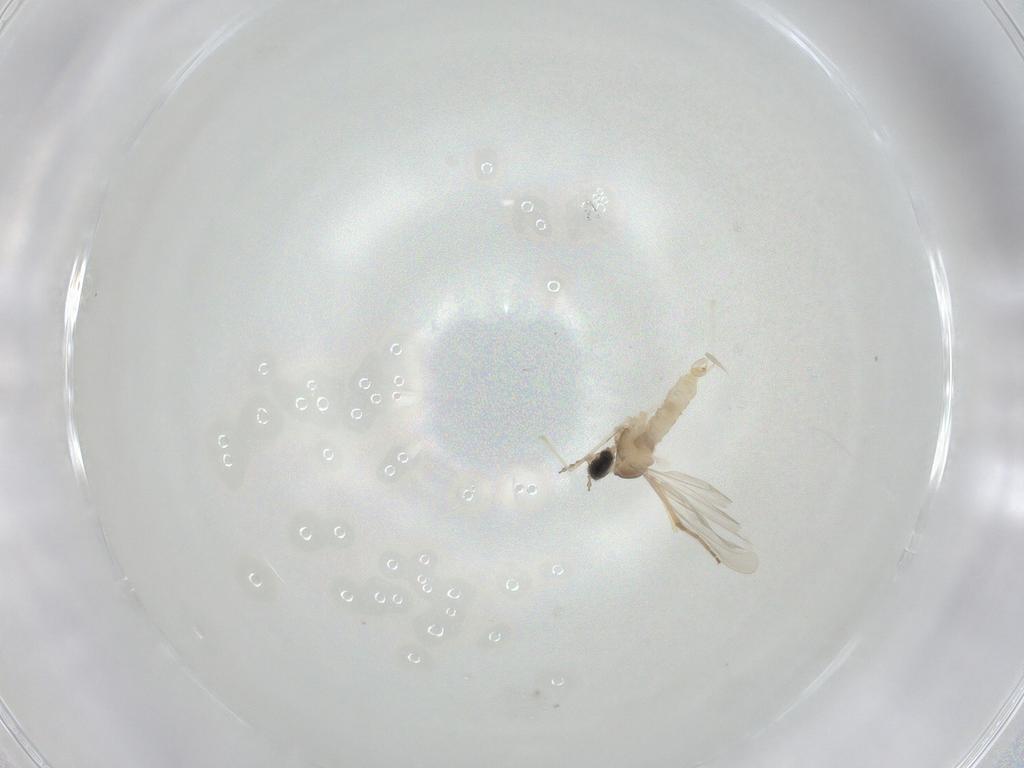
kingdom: Animalia
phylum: Arthropoda
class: Insecta
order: Diptera
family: Cecidomyiidae
